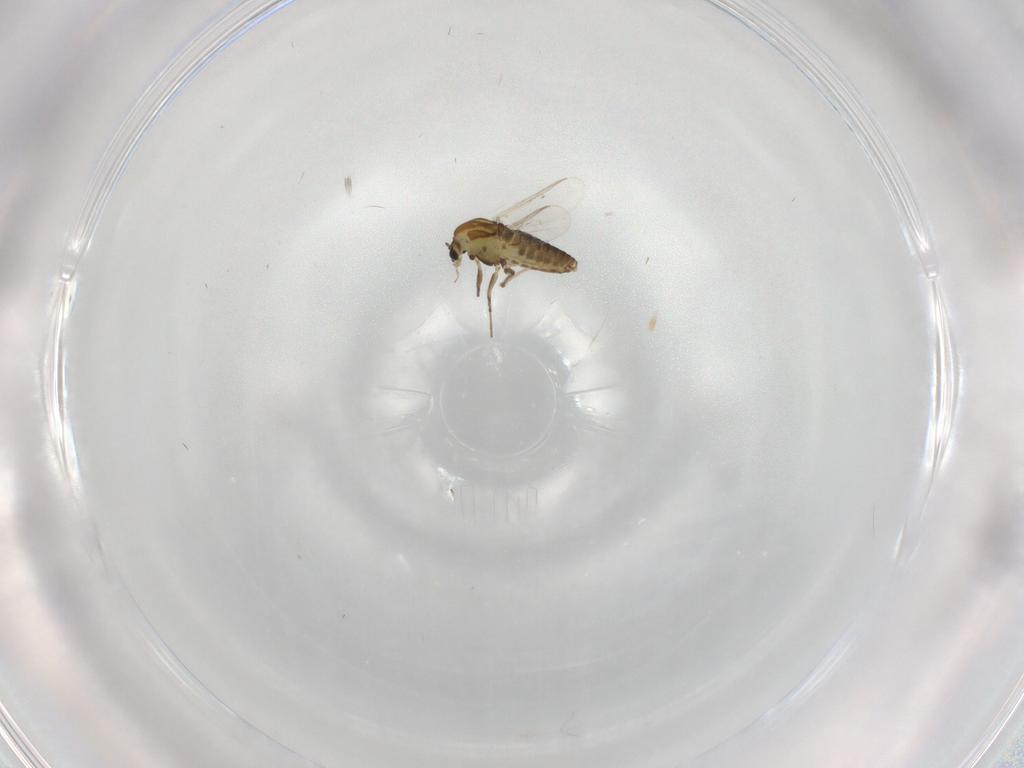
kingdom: Animalia
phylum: Arthropoda
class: Insecta
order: Diptera
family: Chironomidae
